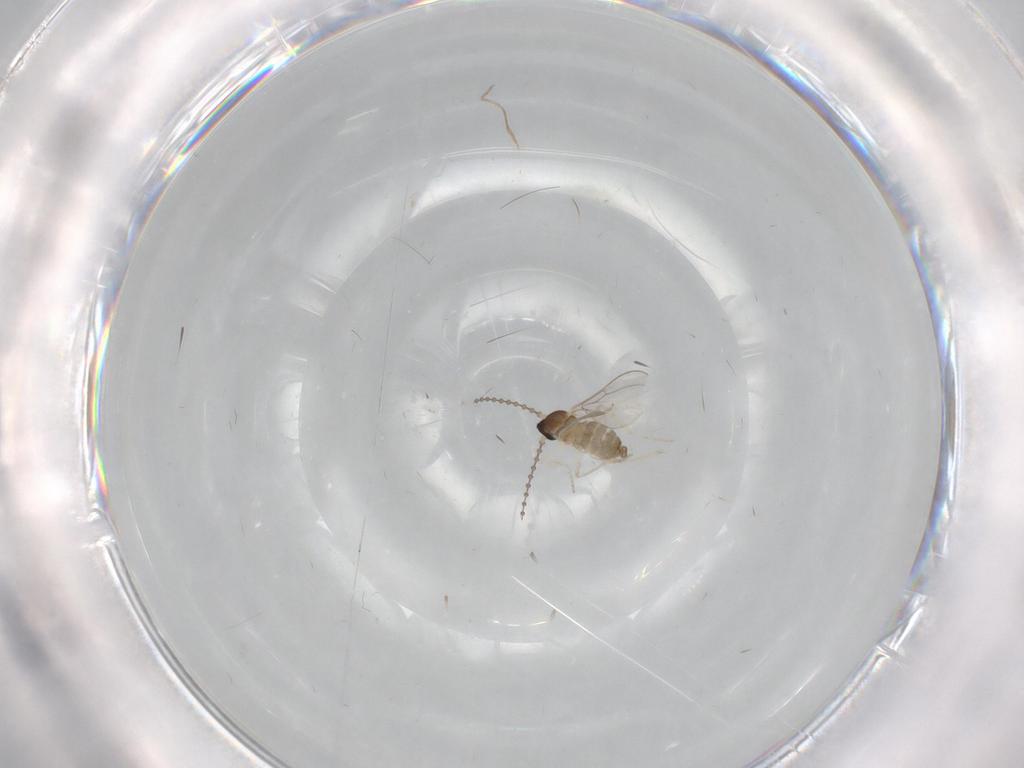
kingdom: Animalia
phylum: Arthropoda
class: Insecta
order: Diptera
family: Cecidomyiidae
